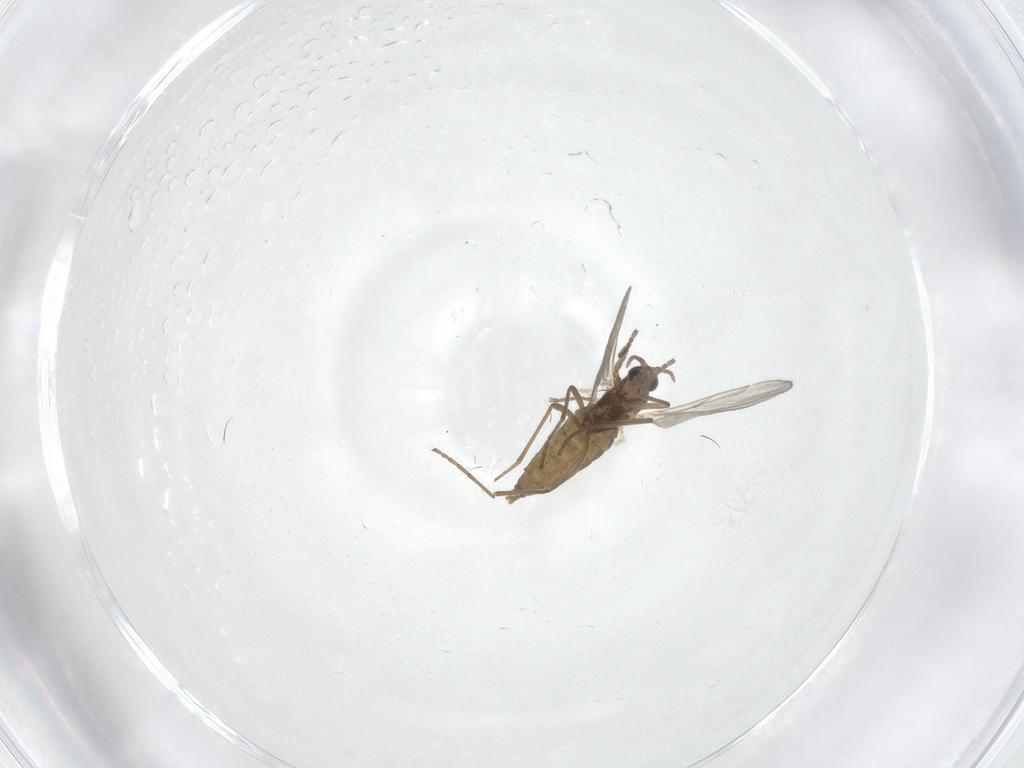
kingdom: Animalia
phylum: Arthropoda
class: Insecta
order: Diptera
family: Cecidomyiidae
